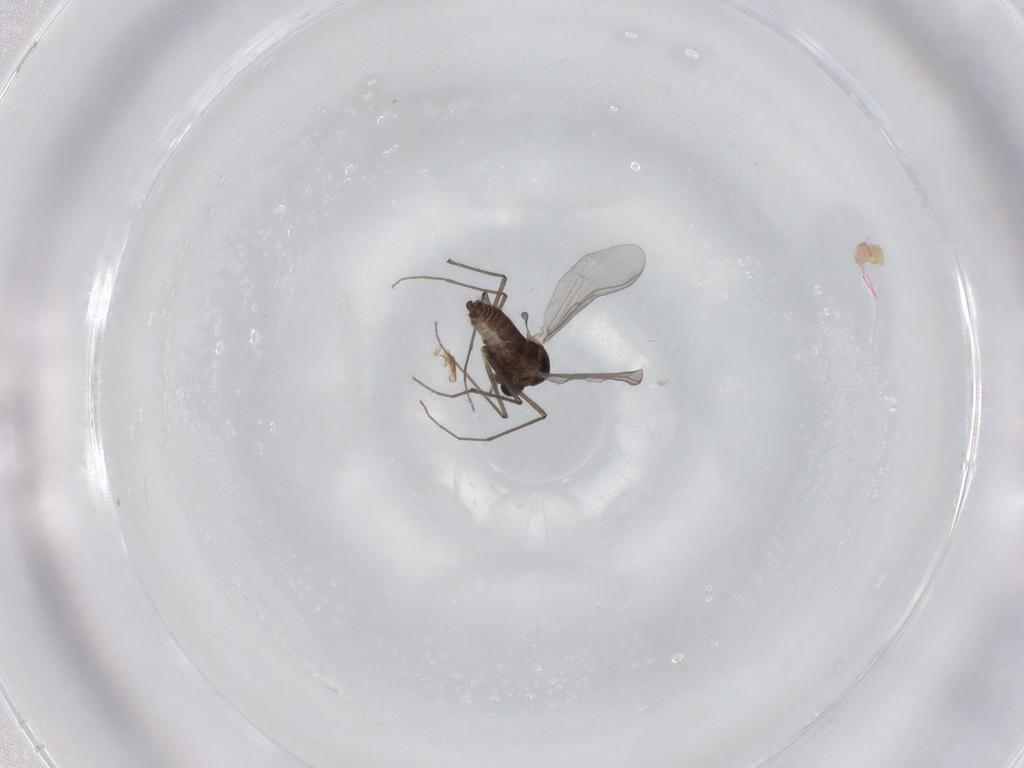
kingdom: Animalia
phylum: Arthropoda
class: Insecta
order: Diptera
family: Chironomidae
